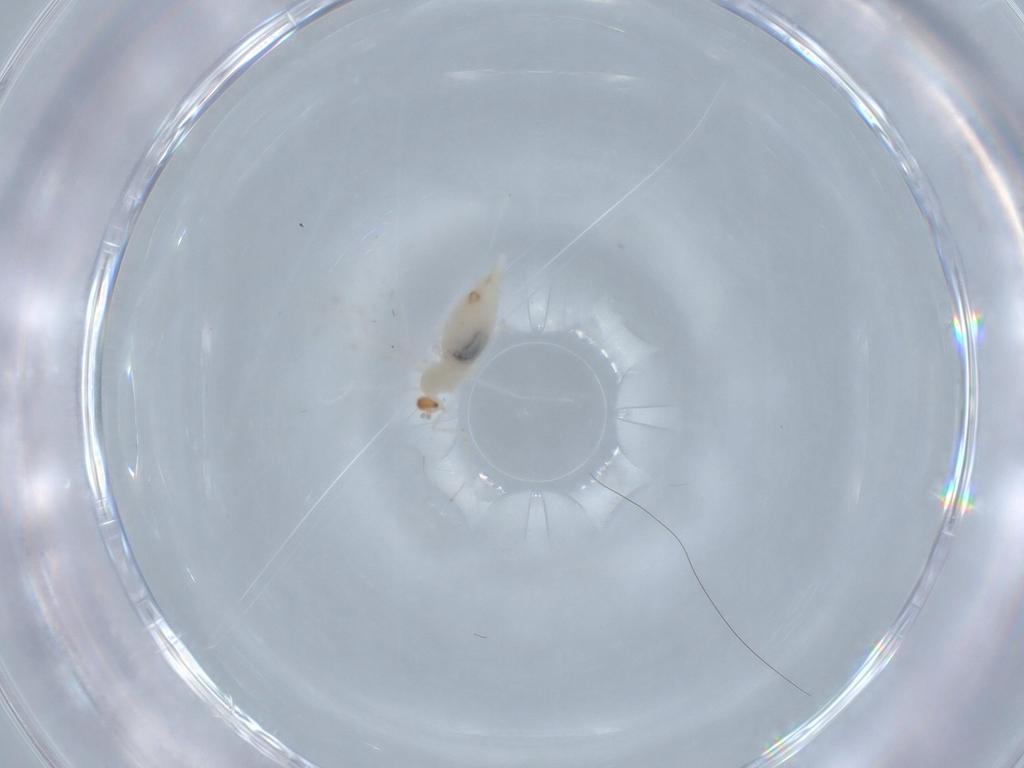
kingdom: Animalia
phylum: Arthropoda
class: Insecta
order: Diptera
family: Cecidomyiidae
